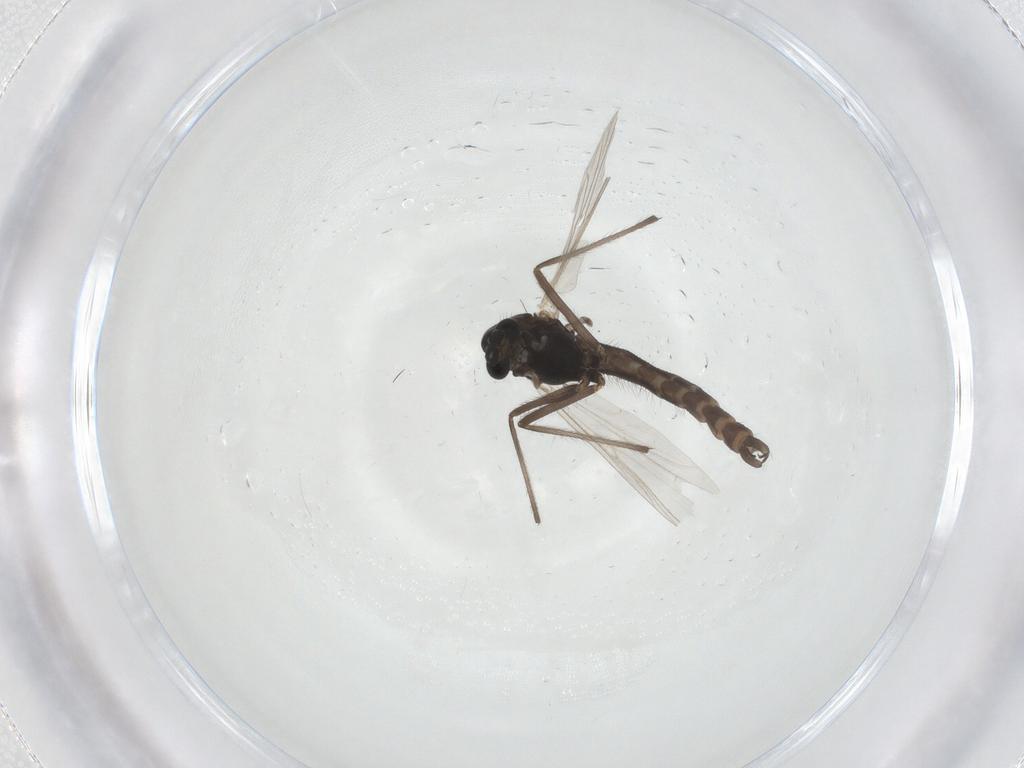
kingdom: Animalia
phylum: Arthropoda
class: Insecta
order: Diptera
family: Chironomidae
